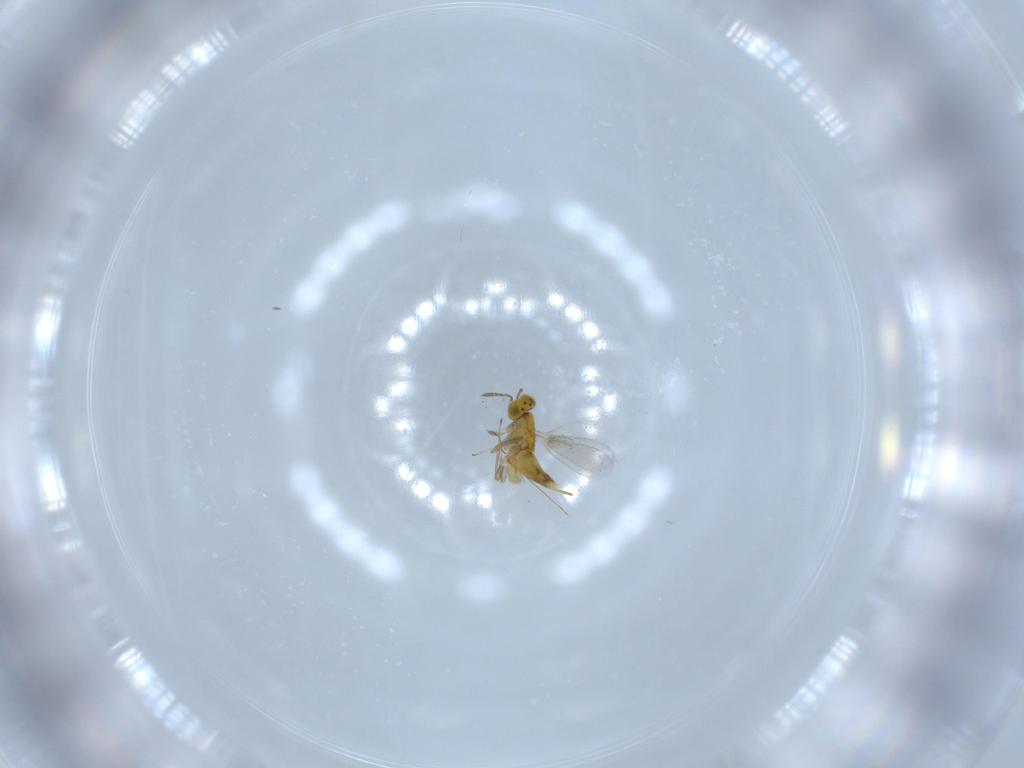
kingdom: Animalia
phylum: Arthropoda
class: Insecta
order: Hymenoptera
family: Aphelinidae
